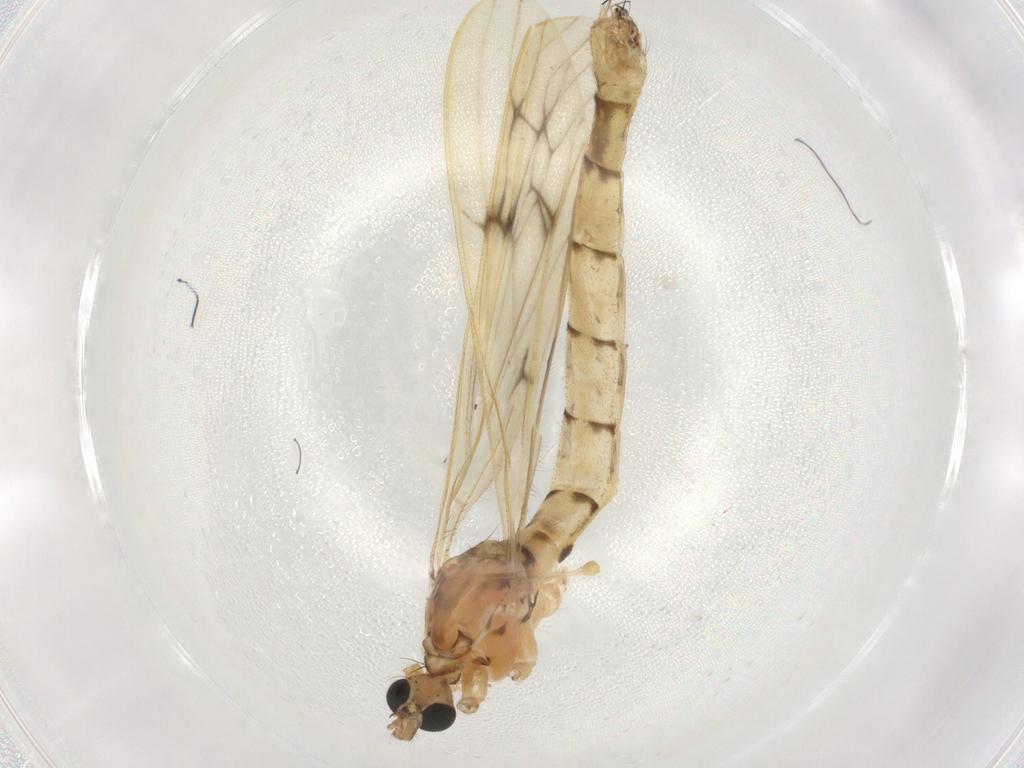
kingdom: Animalia
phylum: Arthropoda
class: Insecta
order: Diptera
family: Limoniidae
